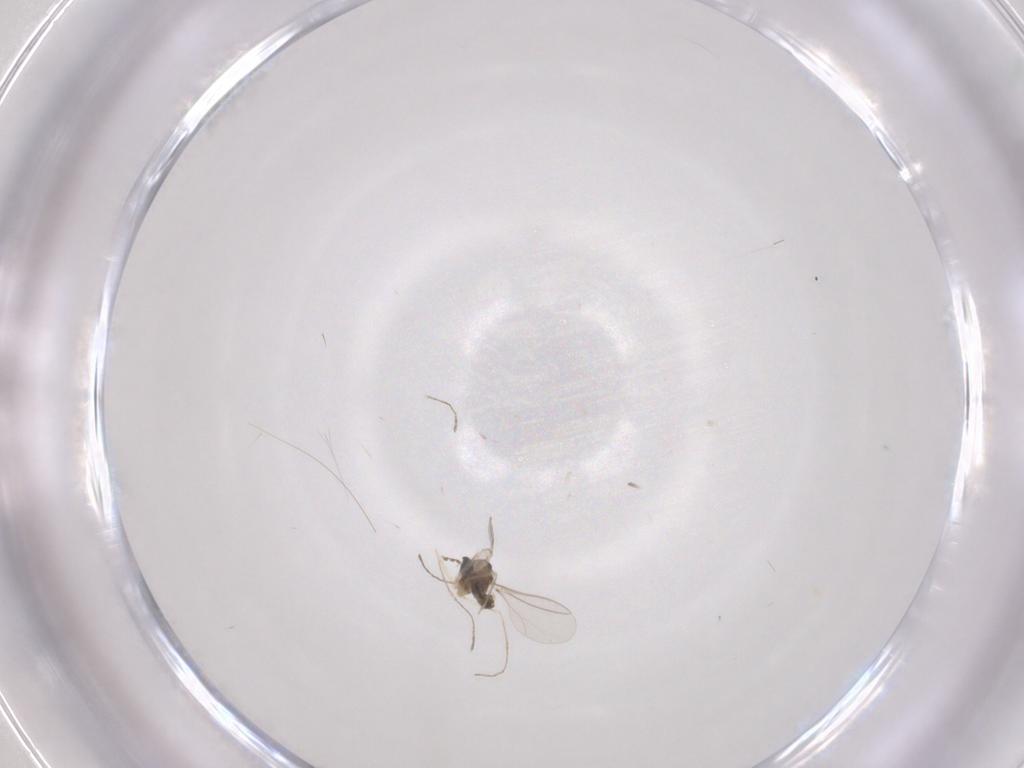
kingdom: Animalia
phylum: Arthropoda
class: Insecta
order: Diptera
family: Cecidomyiidae
